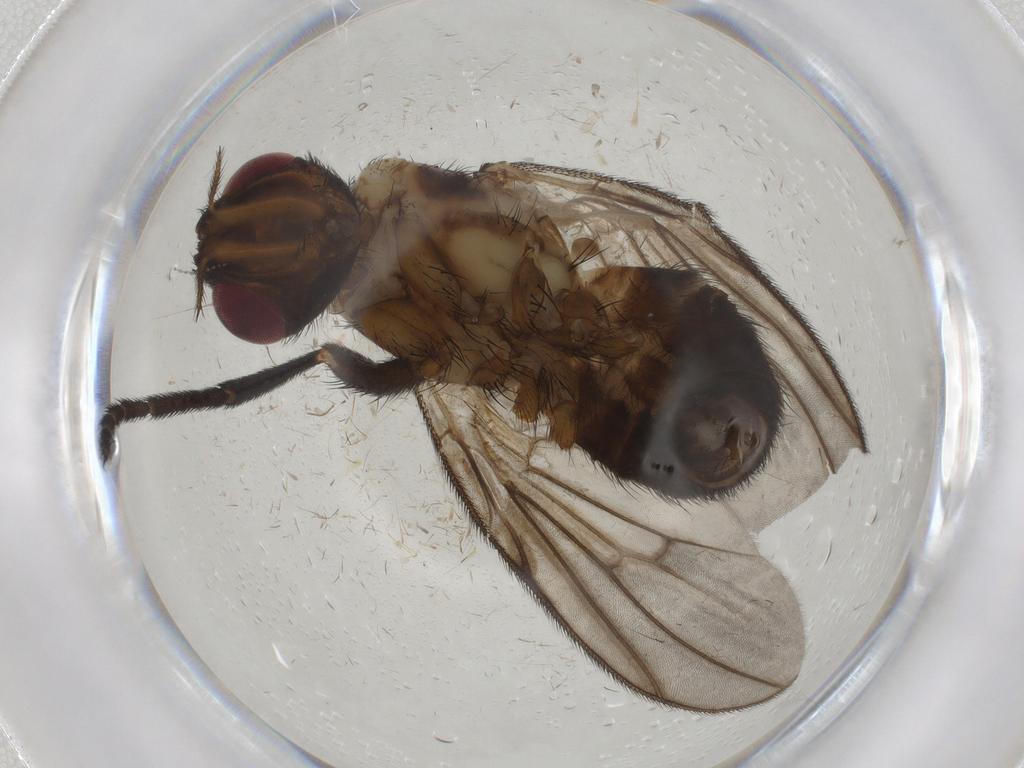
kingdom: Animalia
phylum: Arthropoda
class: Insecta
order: Diptera
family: Calliphoridae
